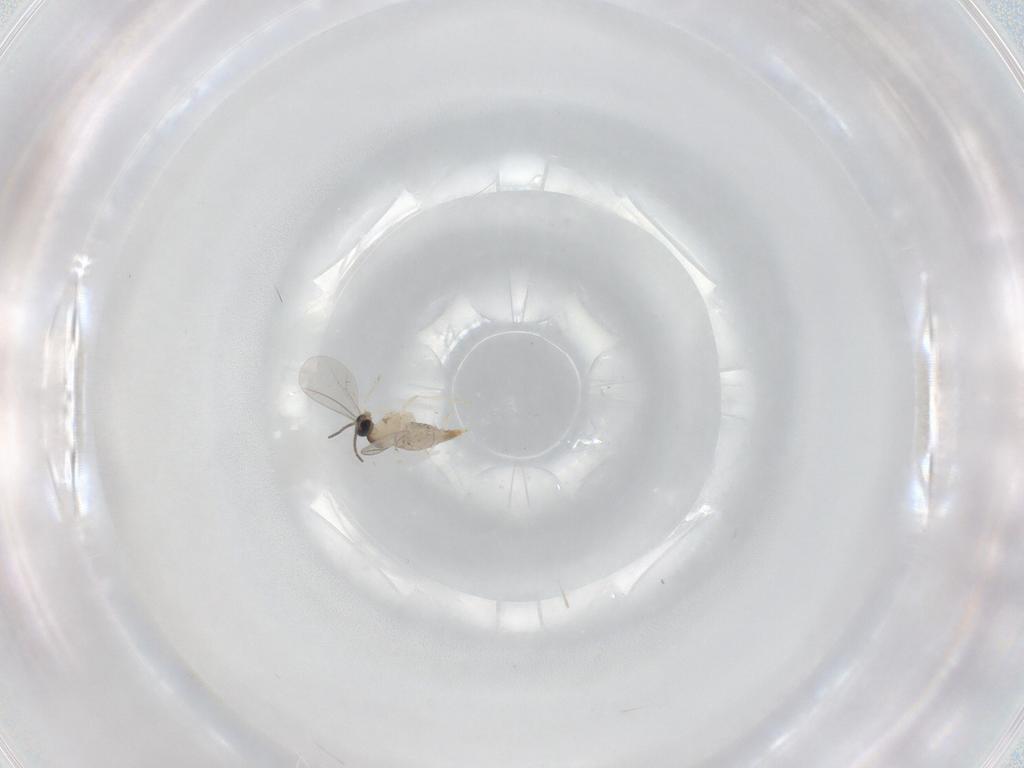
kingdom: Animalia
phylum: Arthropoda
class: Insecta
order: Diptera
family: Cecidomyiidae
